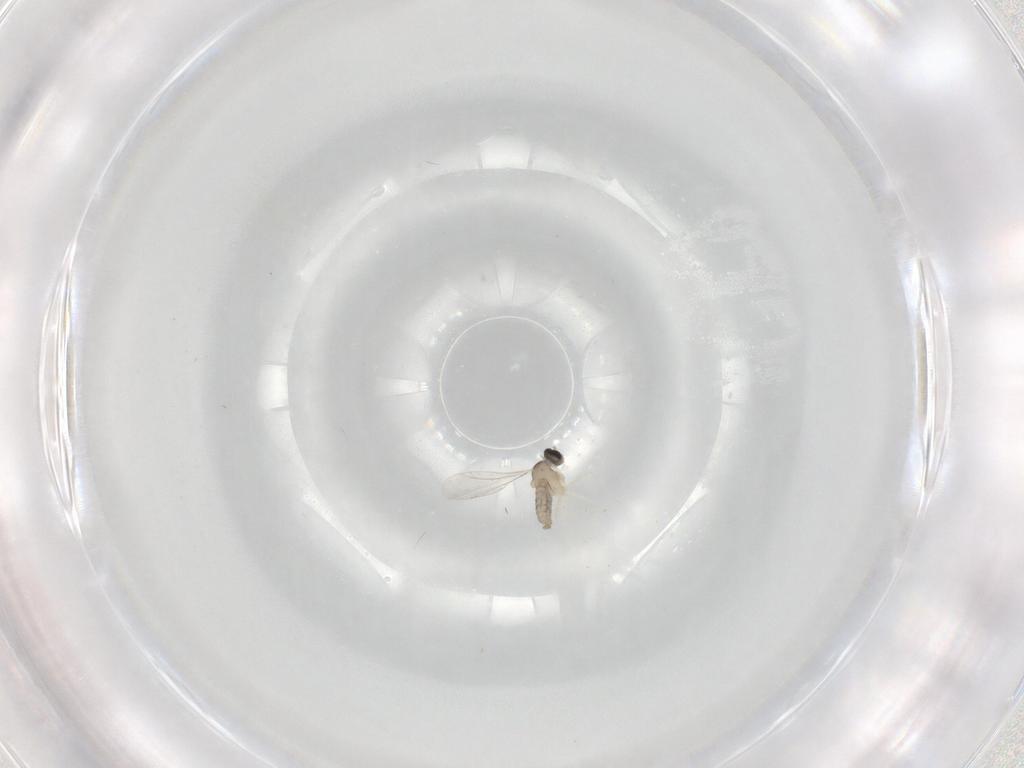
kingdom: Animalia
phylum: Arthropoda
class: Insecta
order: Diptera
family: Cecidomyiidae
